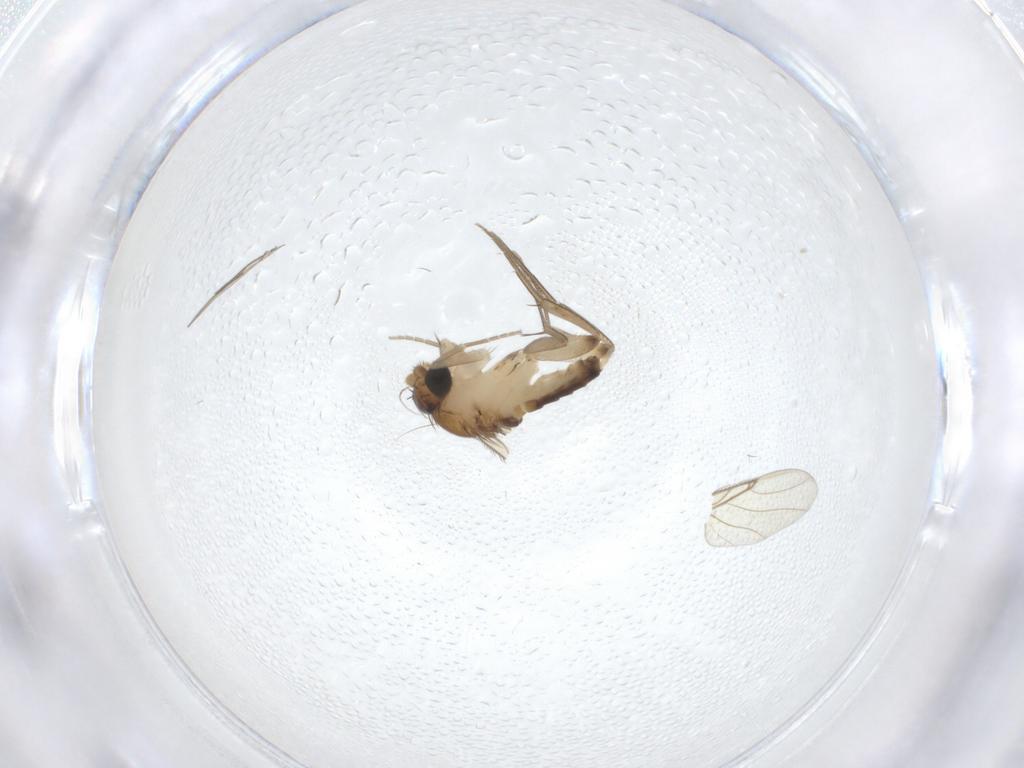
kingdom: Animalia
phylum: Arthropoda
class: Insecta
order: Diptera
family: Phoridae
